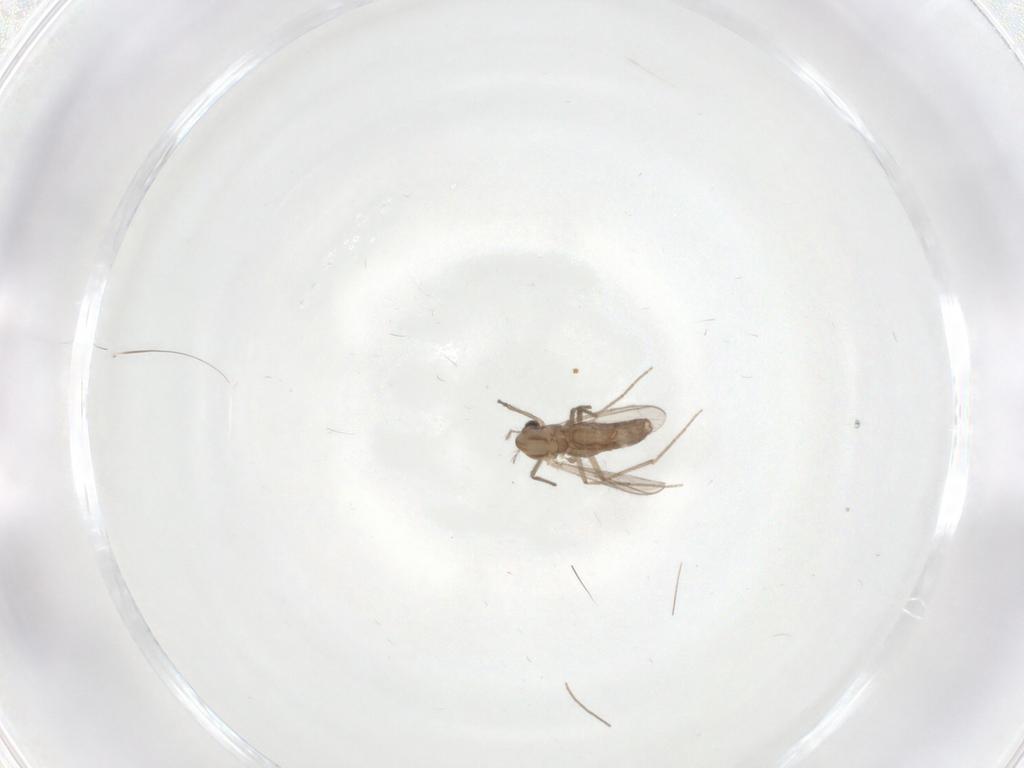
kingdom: Animalia
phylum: Arthropoda
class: Insecta
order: Diptera
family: Chironomidae
